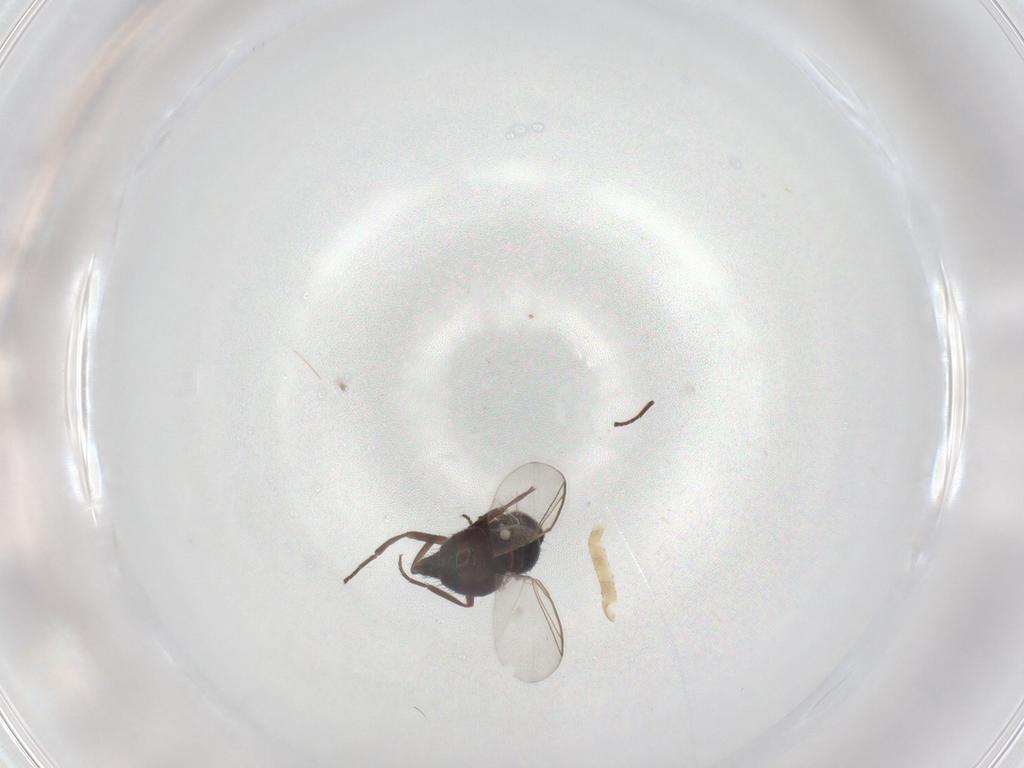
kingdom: Animalia
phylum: Arthropoda
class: Insecta
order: Diptera
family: Agromyzidae
